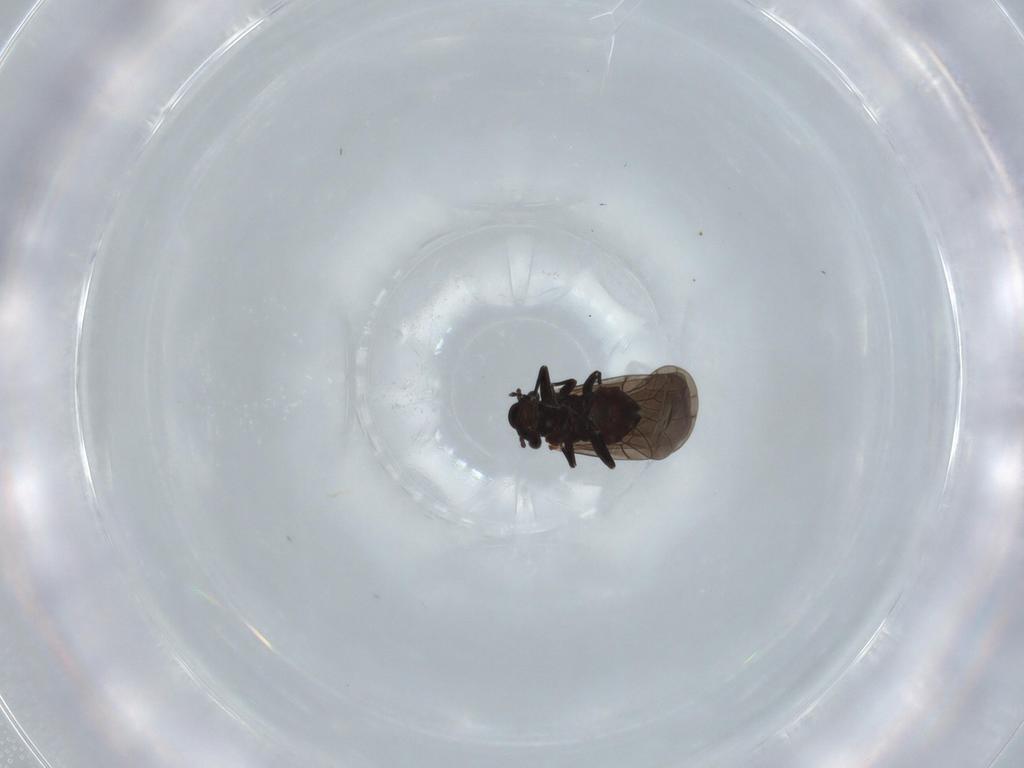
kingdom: Animalia
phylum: Arthropoda
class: Insecta
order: Psocodea
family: Lepidopsocidae
